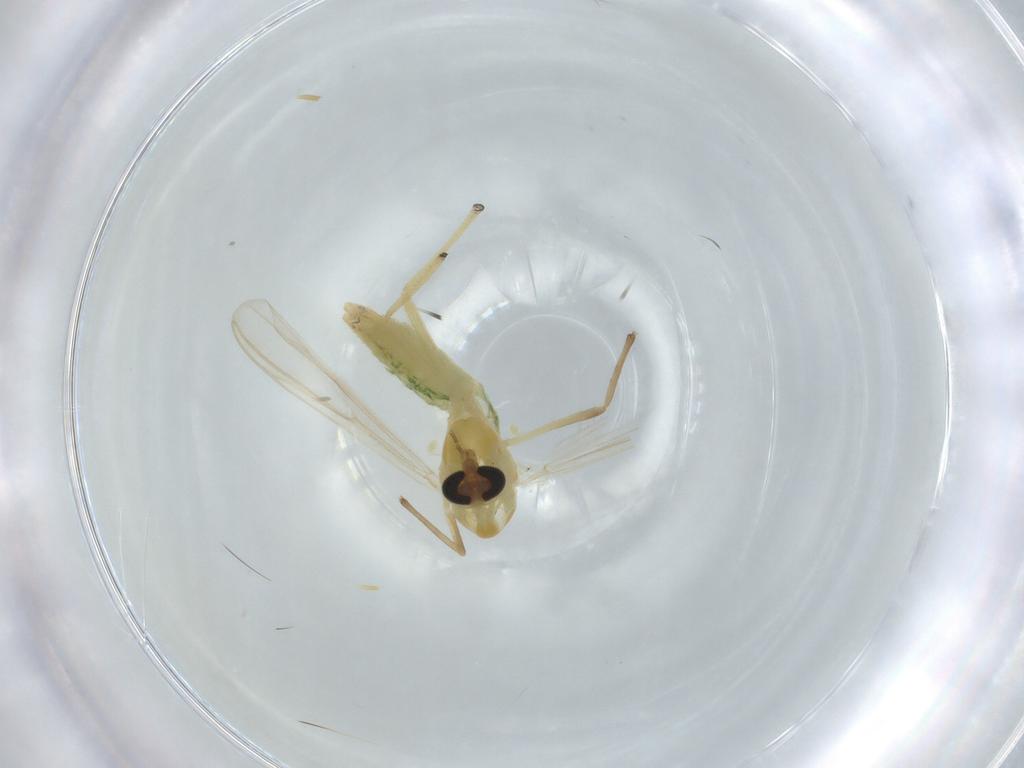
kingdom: Animalia
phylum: Arthropoda
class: Insecta
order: Diptera
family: Chironomidae
